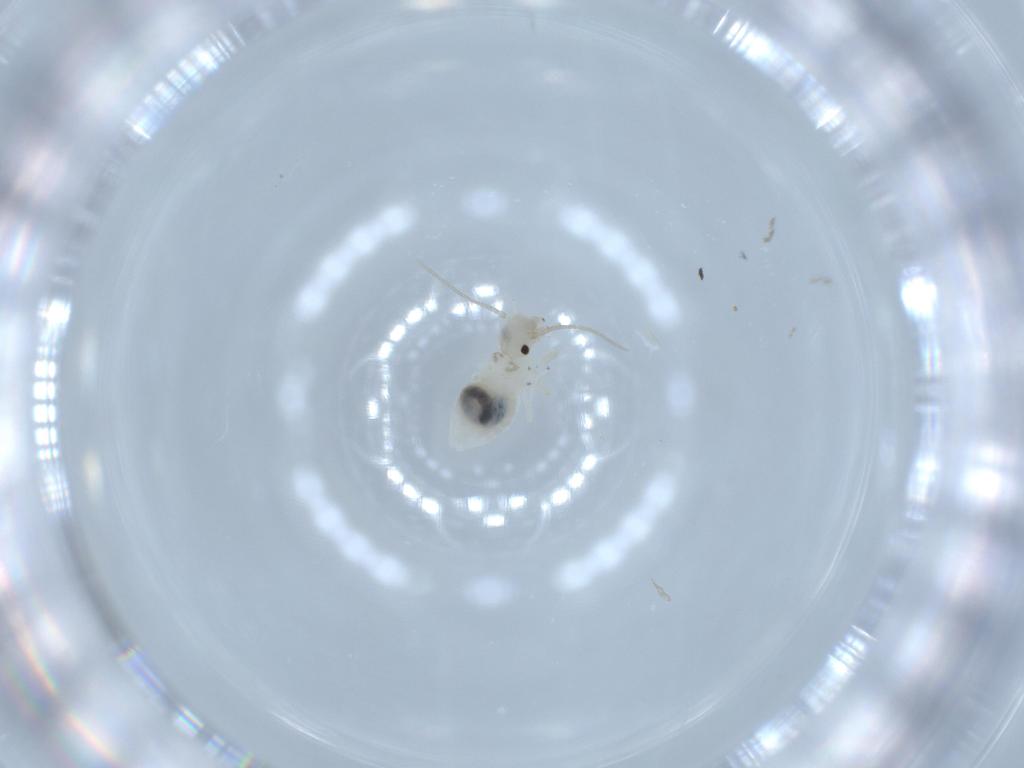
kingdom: Animalia
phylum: Arthropoda
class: Insecta
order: Psocodea
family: Caeciliusidae
